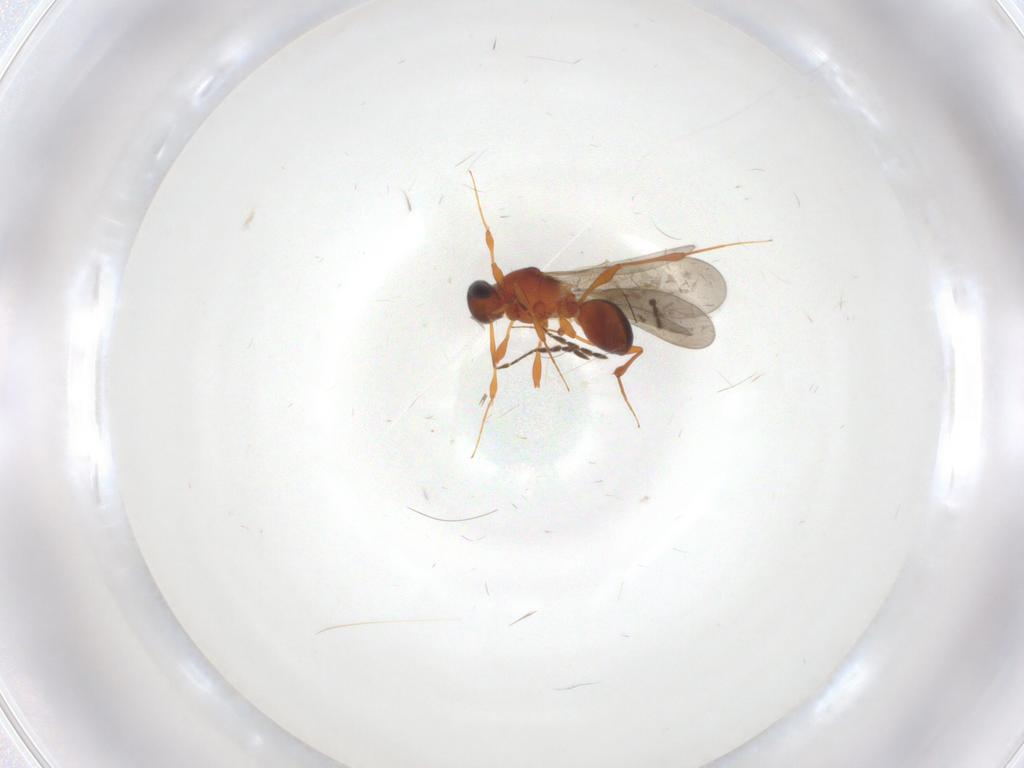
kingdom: Animalia
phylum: Arthropoda
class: Insecta
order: Hymenoptera
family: Platygastridae
